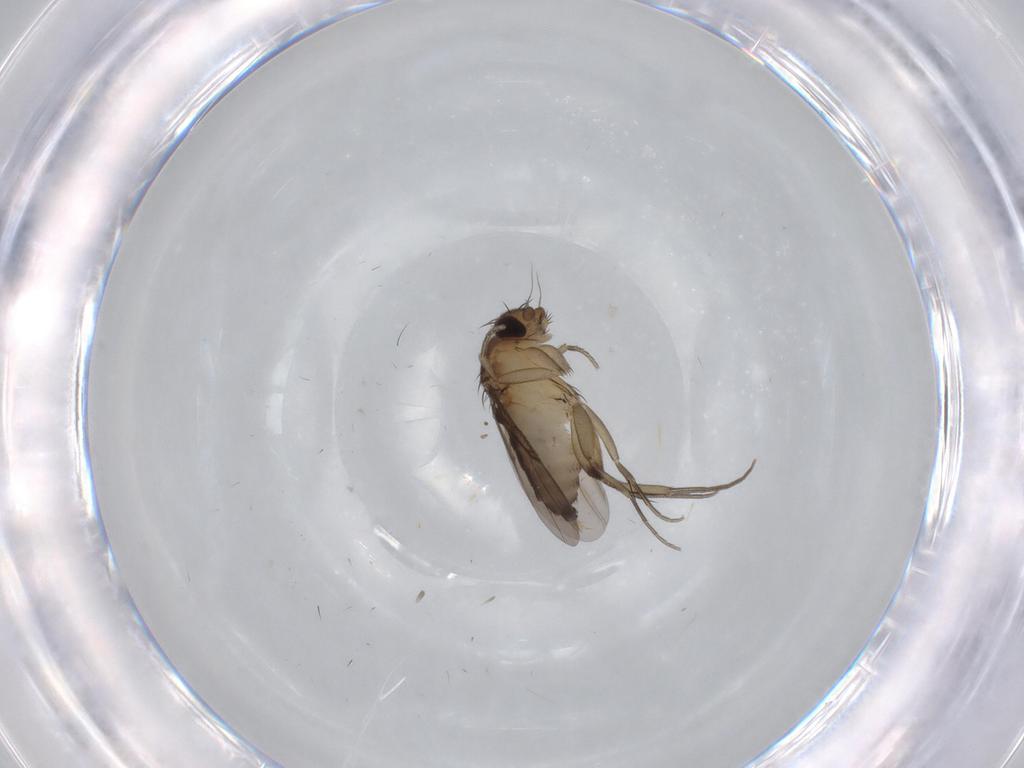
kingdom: Animalia
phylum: Arthropoda
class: Insecta
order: Diptera
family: Phoridae
